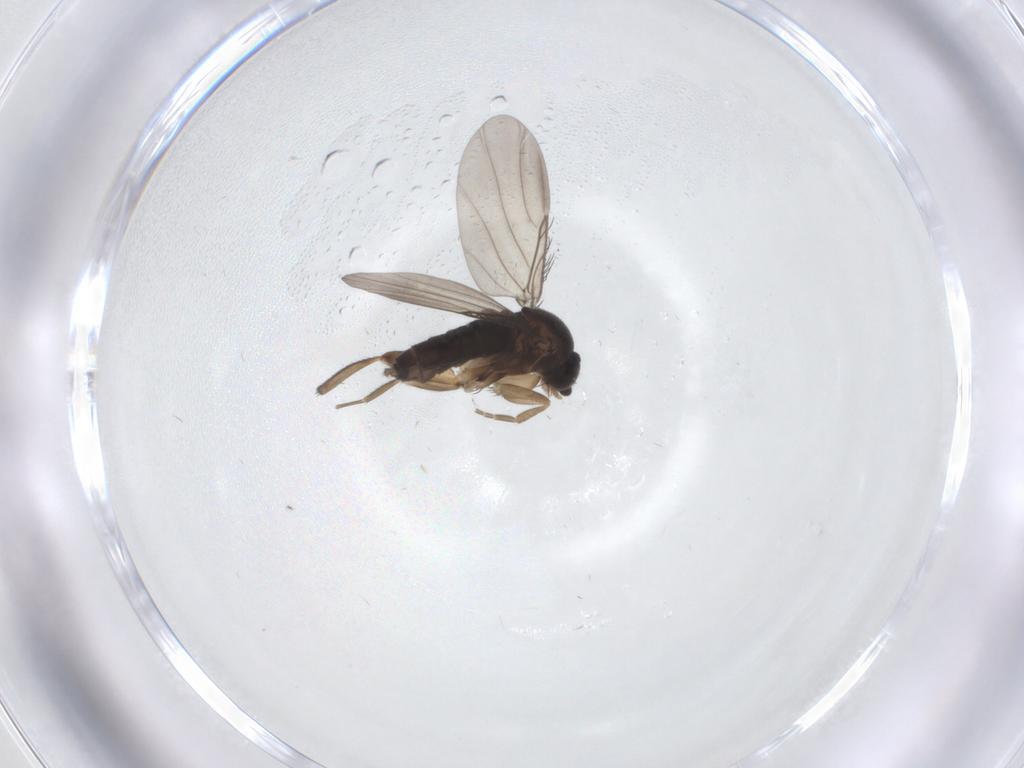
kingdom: Animalia
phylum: Arthropoda
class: Insecta
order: Diptera
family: Phoridae
